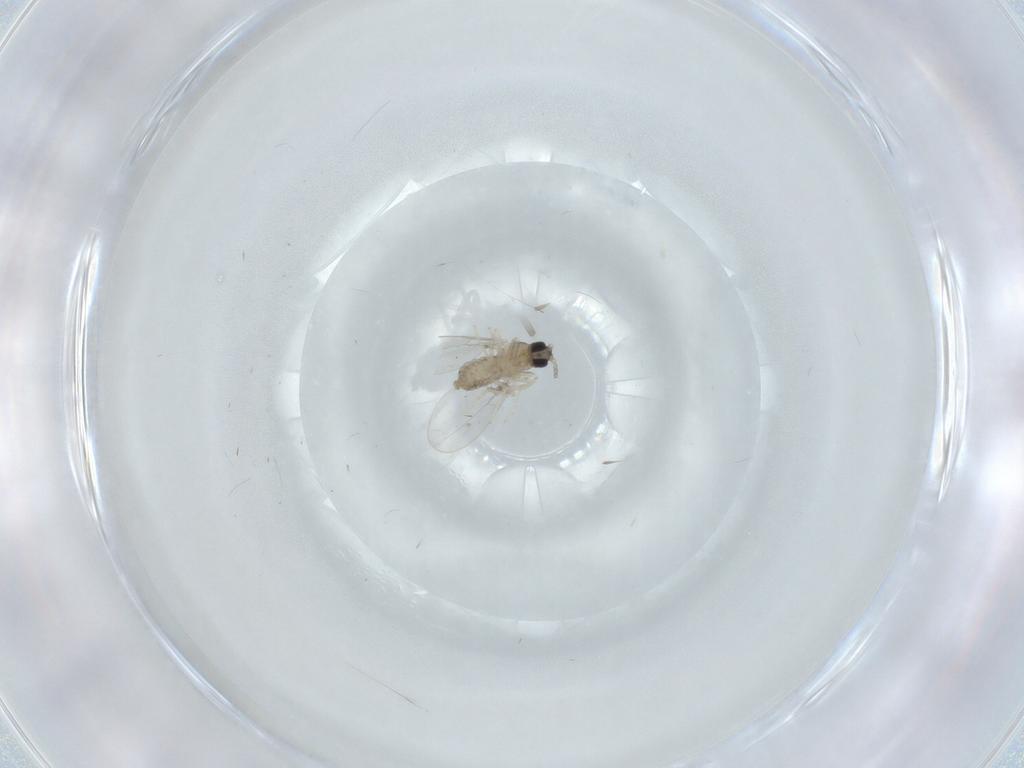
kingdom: Animalia
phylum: Arthropoda
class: Insecta
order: Diptera
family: Cecidomyiidae
